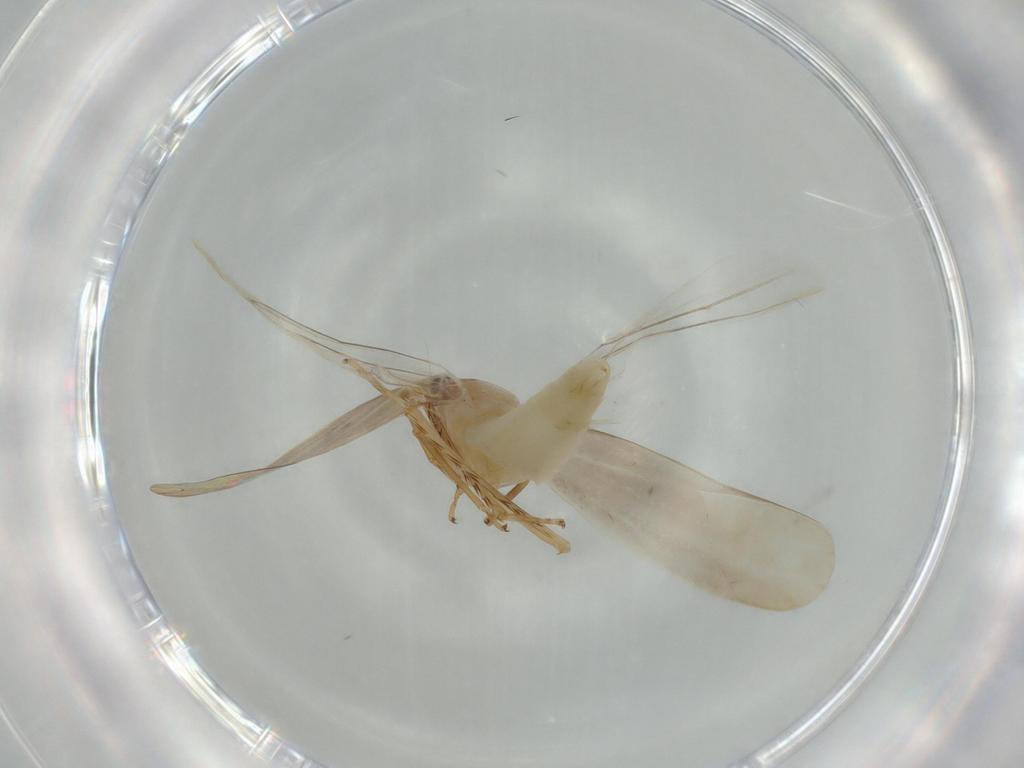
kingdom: Animalia
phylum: Arthropoda
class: Insecta
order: Hemiptera
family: Cicadellidae
